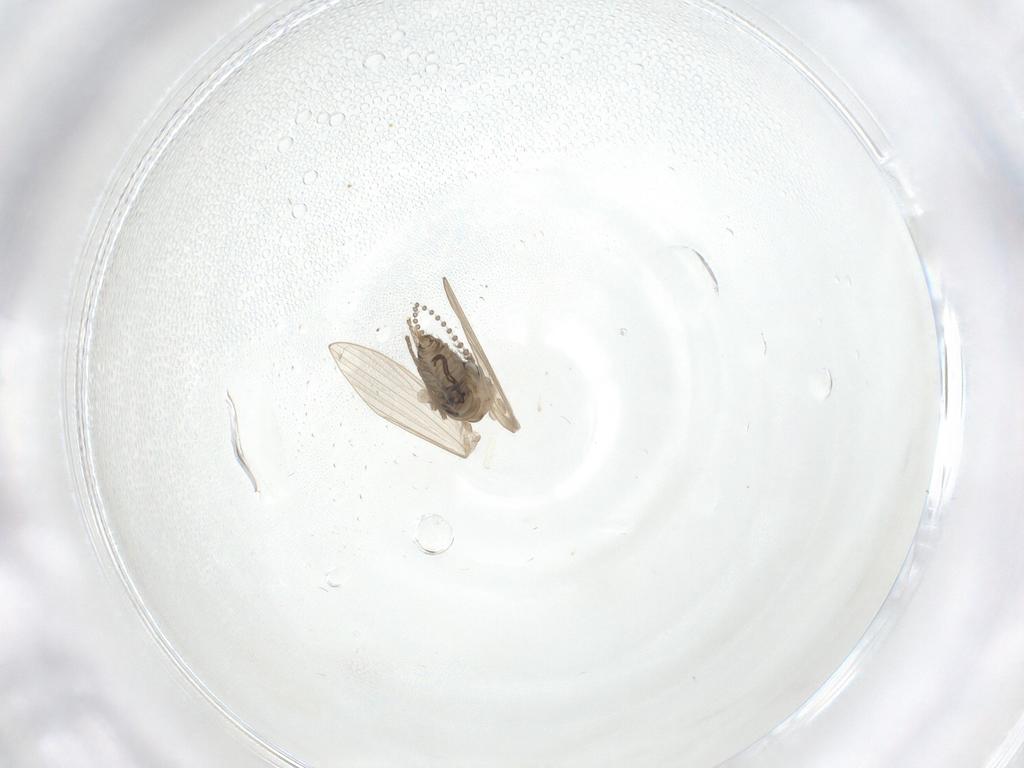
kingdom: Animalia
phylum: Arthropoda
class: Insecta
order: Diptera
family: Psychodidae
